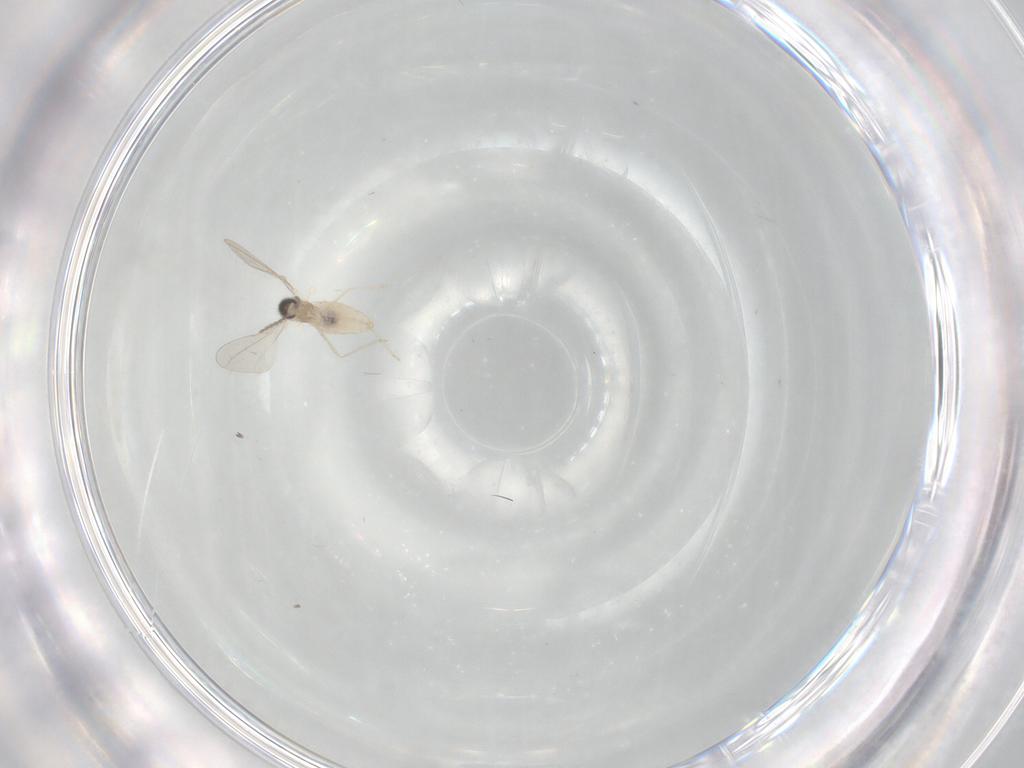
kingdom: Animalia
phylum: Arthropoda
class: Insecta
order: Diptera
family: Cecidomyiidae
